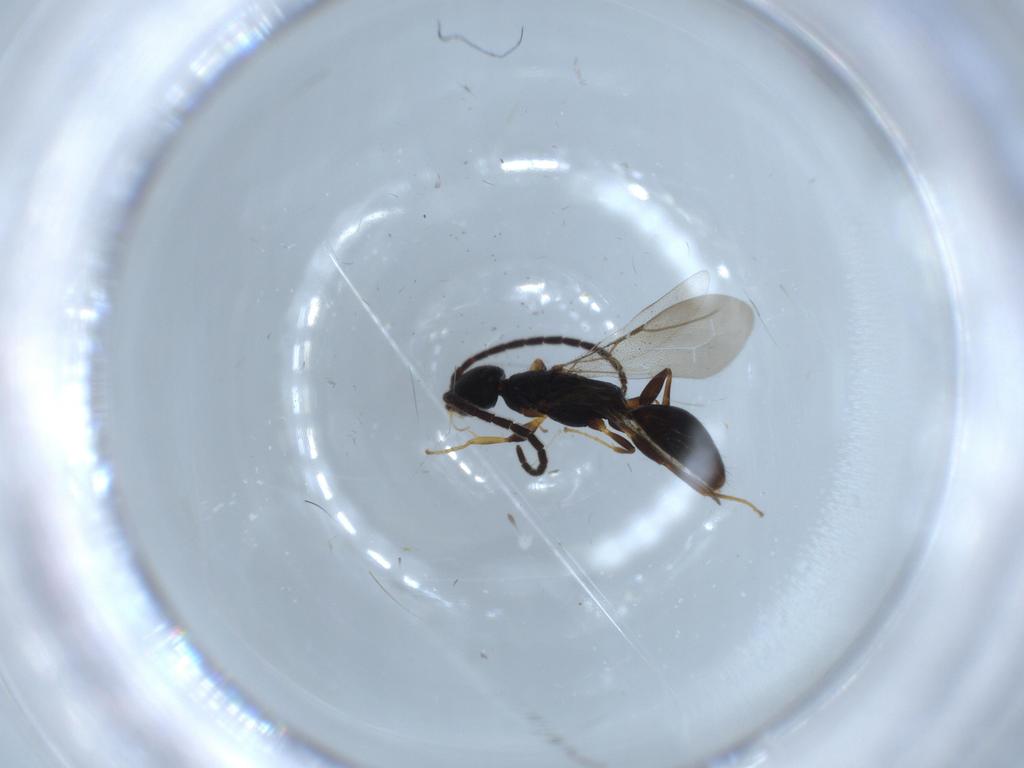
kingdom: Animalia
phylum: Arthropoda
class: Insecta
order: Hymenoptera
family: Bethylidae
